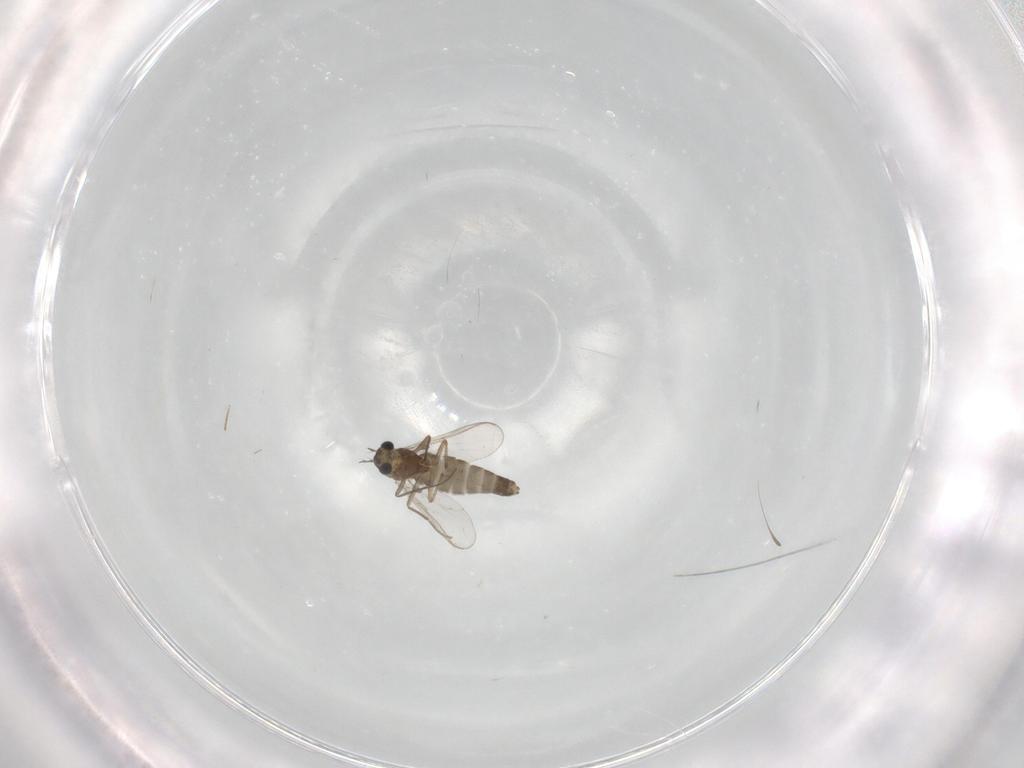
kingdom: Animalia
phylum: Arthropoda
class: Insecta
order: Diptera
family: Chironomidae
